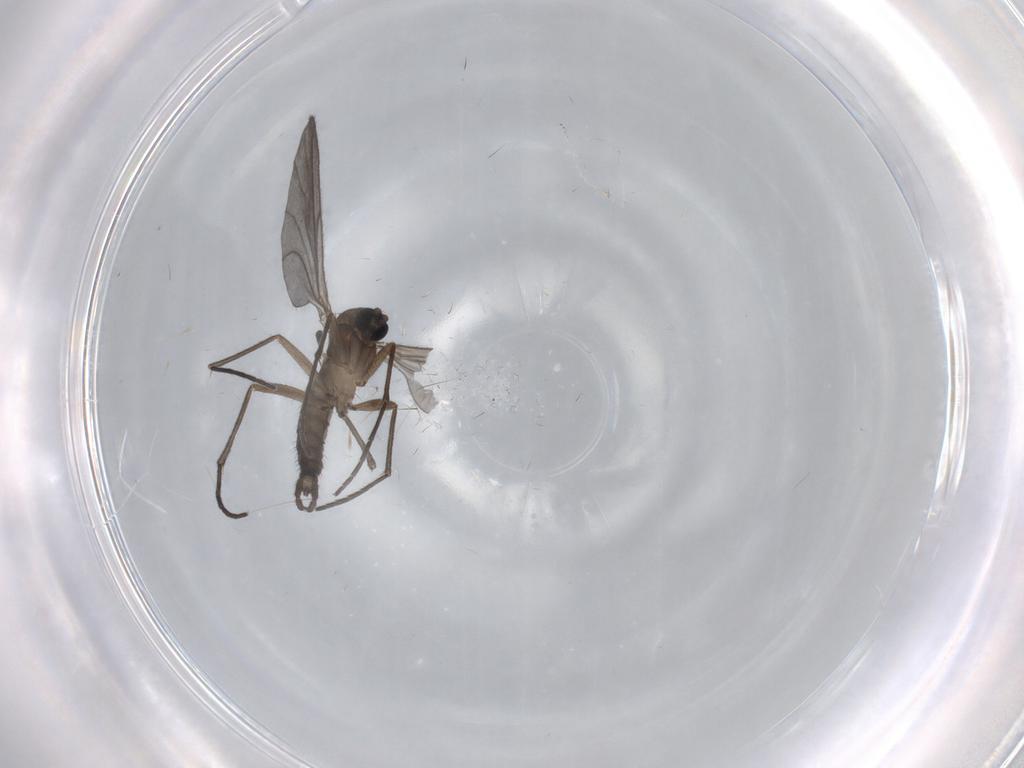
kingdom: Animalia
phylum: Arthropoda
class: Insecta
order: Diptera
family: Sciaridae
